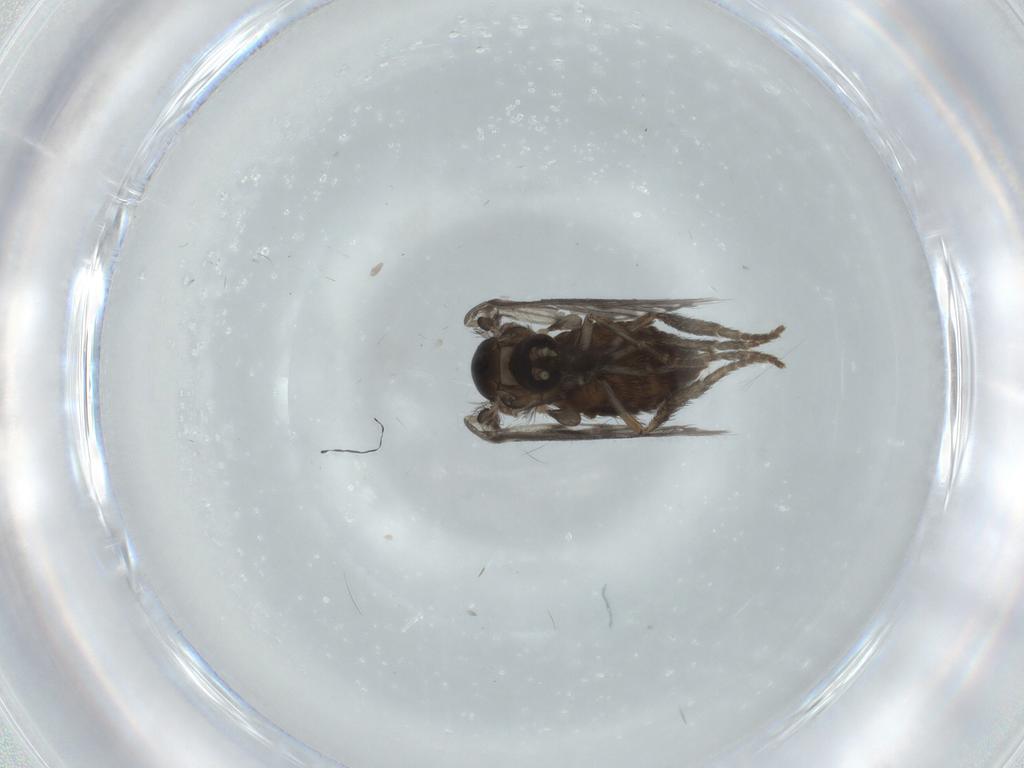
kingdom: Animalia
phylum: Arthropoda
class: Insecta
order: Diptera
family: Psychodidae
